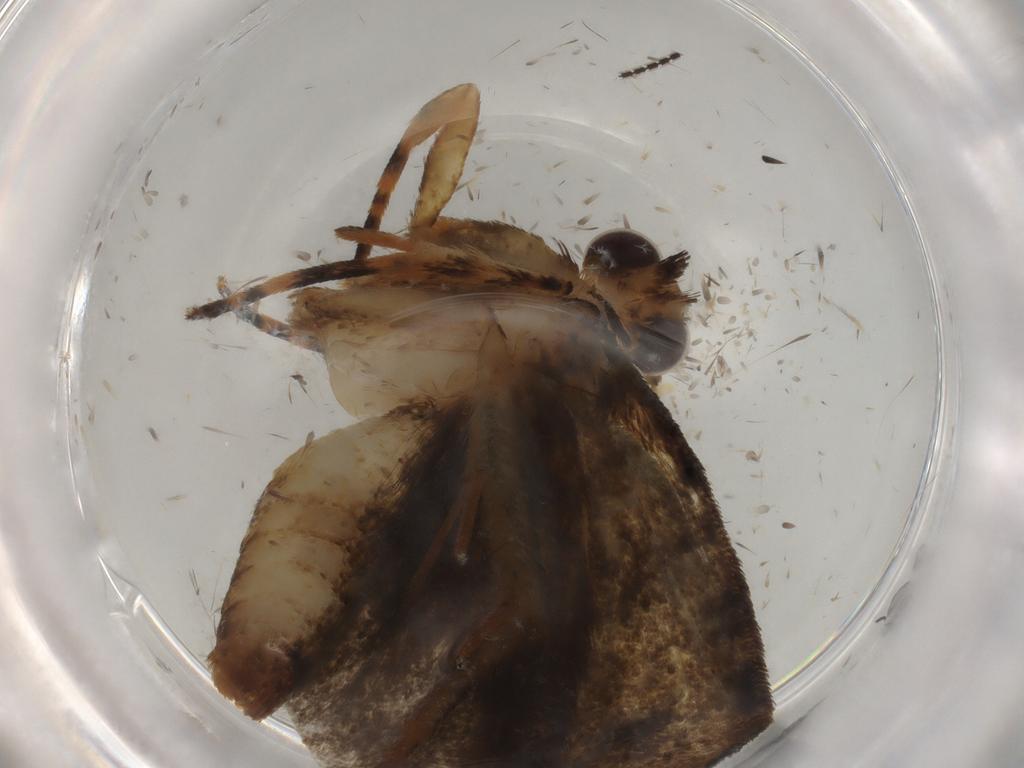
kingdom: Animalia
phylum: Arthropoda
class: Insecta
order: Lepidoptera
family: Tineidae
